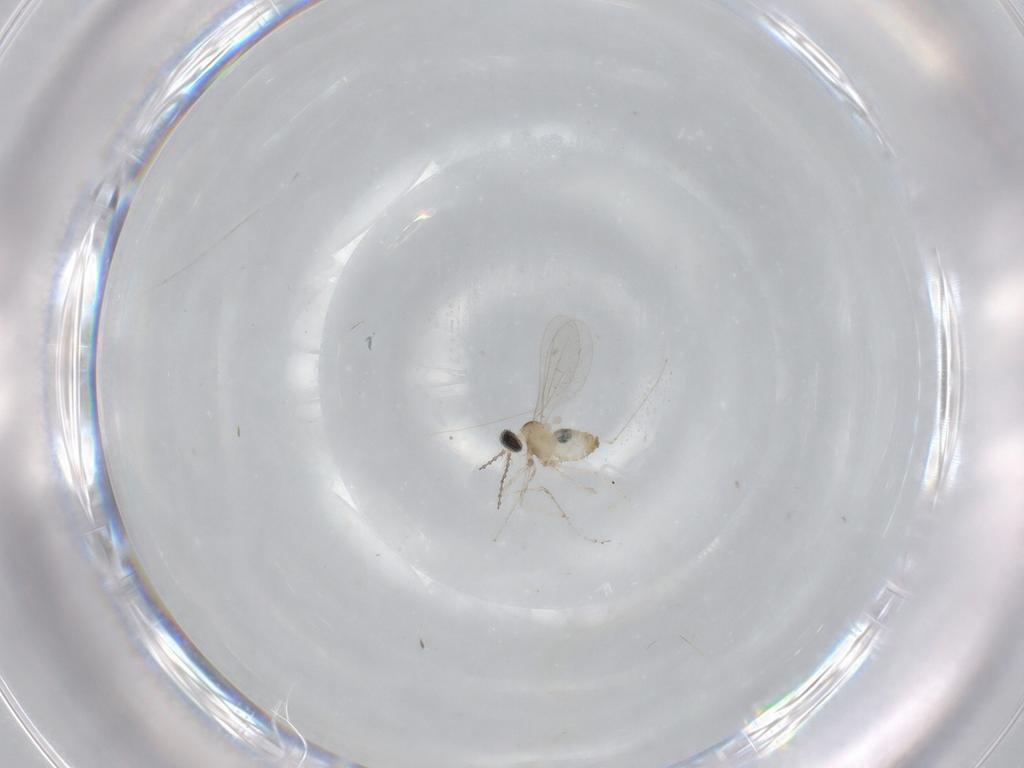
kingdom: Animalia
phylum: Arthropoda
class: Insecta
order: Diptera
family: Cecidomyiidae
